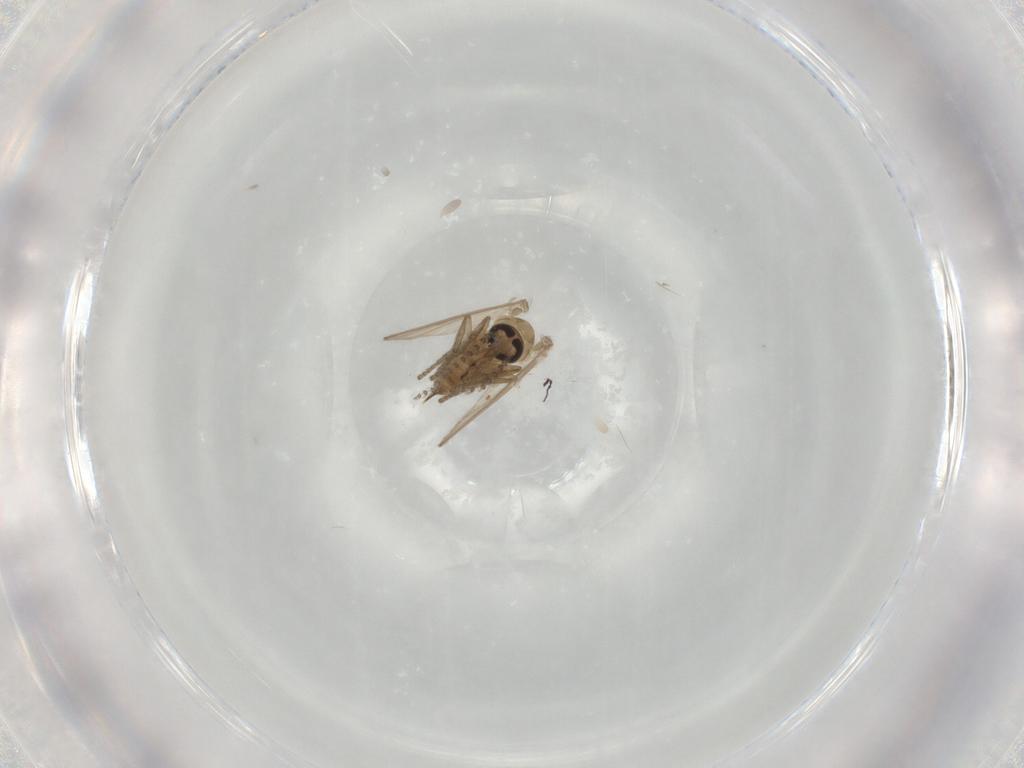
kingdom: Animalia
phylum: Arthropoda
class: Insecta
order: Diptera
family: Psychodidae
